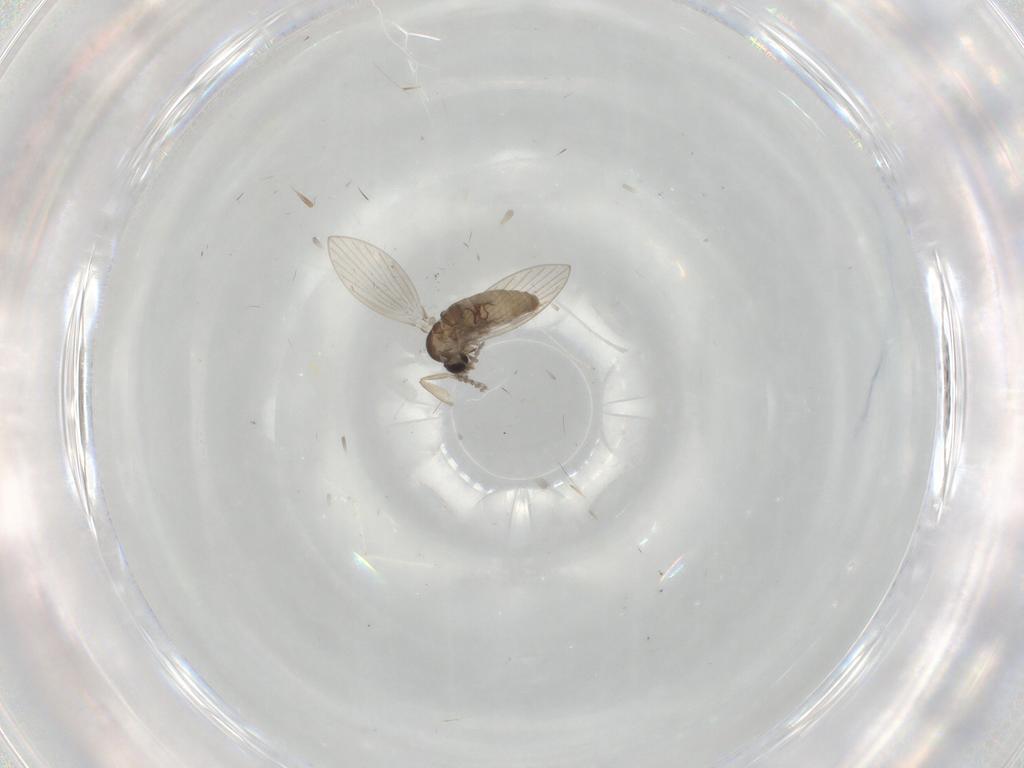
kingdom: Animalia
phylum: Arthropoda
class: Insecta
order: Diptera
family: Psychodidae
